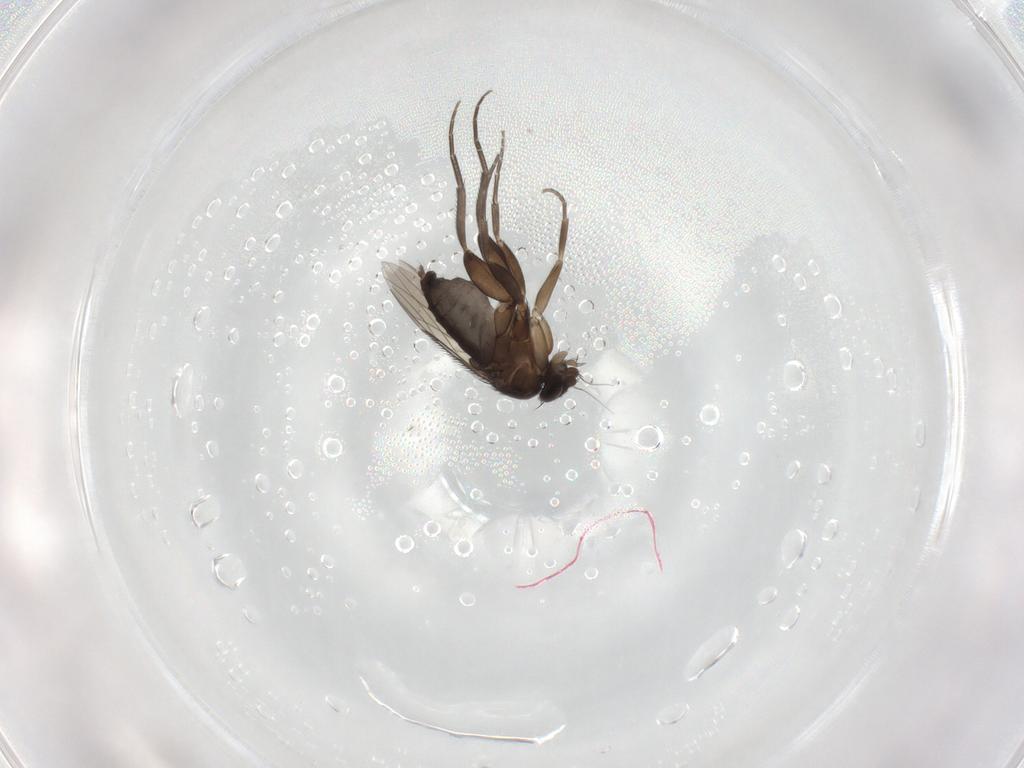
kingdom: Animalia
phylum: Arthropoda
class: Insecta
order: Diptera
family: Phoridae
